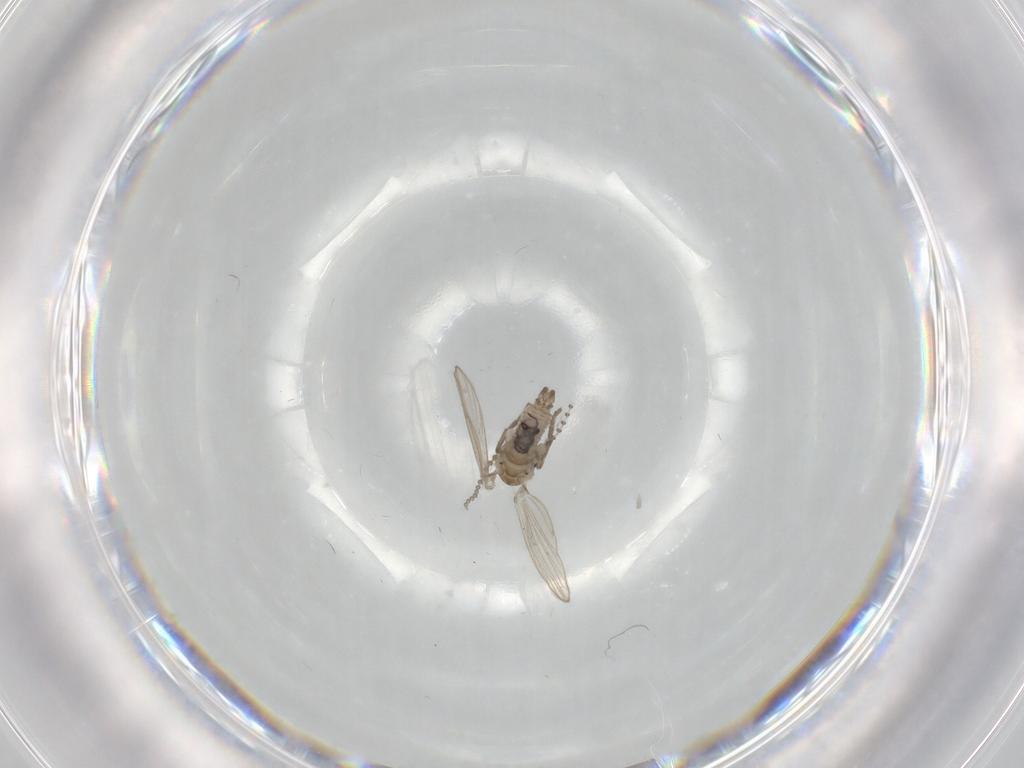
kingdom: Animalia
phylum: Arthropoda
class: Insecta
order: Diptera
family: Psychodidae
